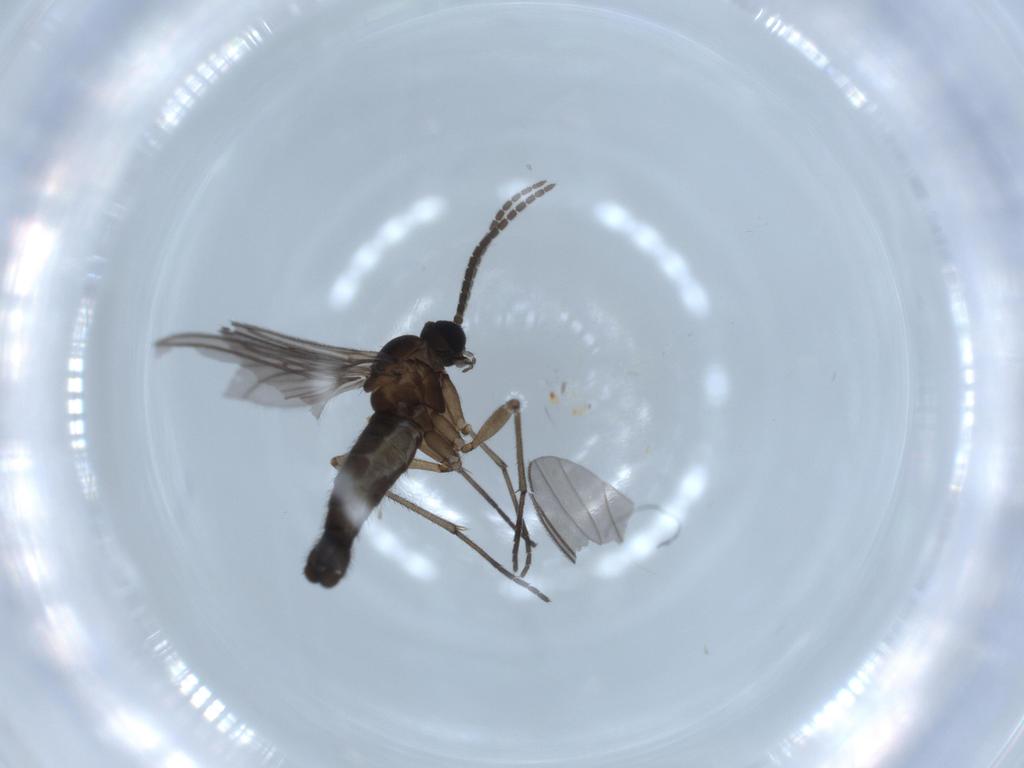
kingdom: Animalia
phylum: Arthropoda
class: Insecta
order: Diptera
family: Sciaridae
